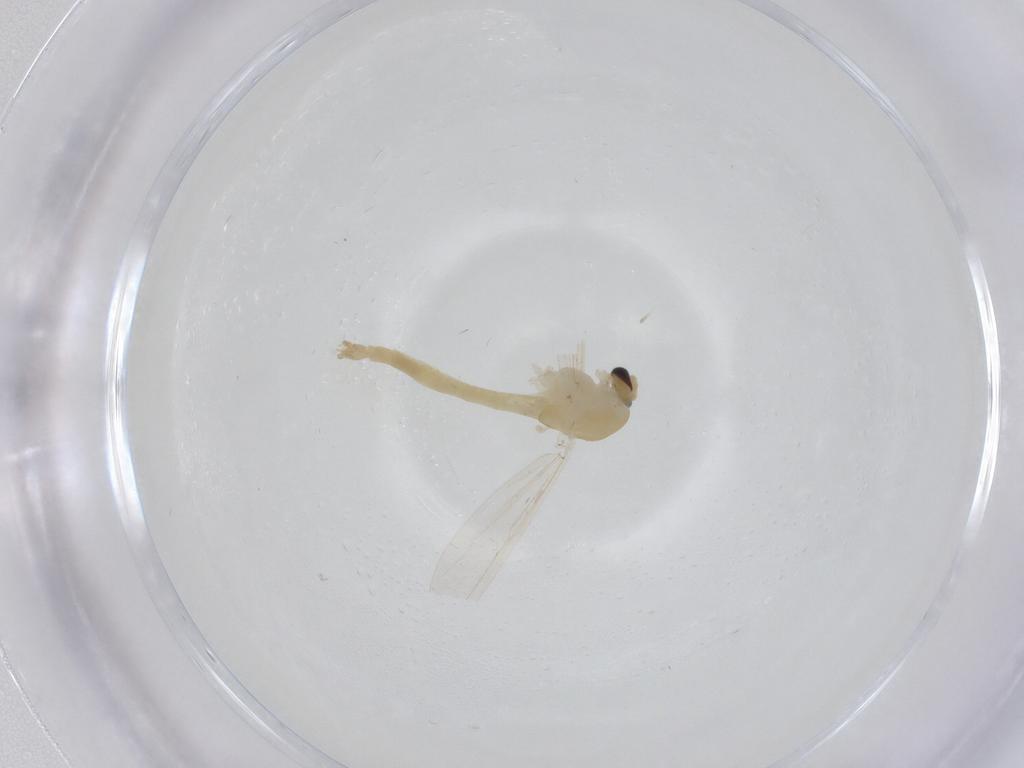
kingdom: Animalia
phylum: Arthropoda
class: Insecta
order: Diptera
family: Chironomidae
